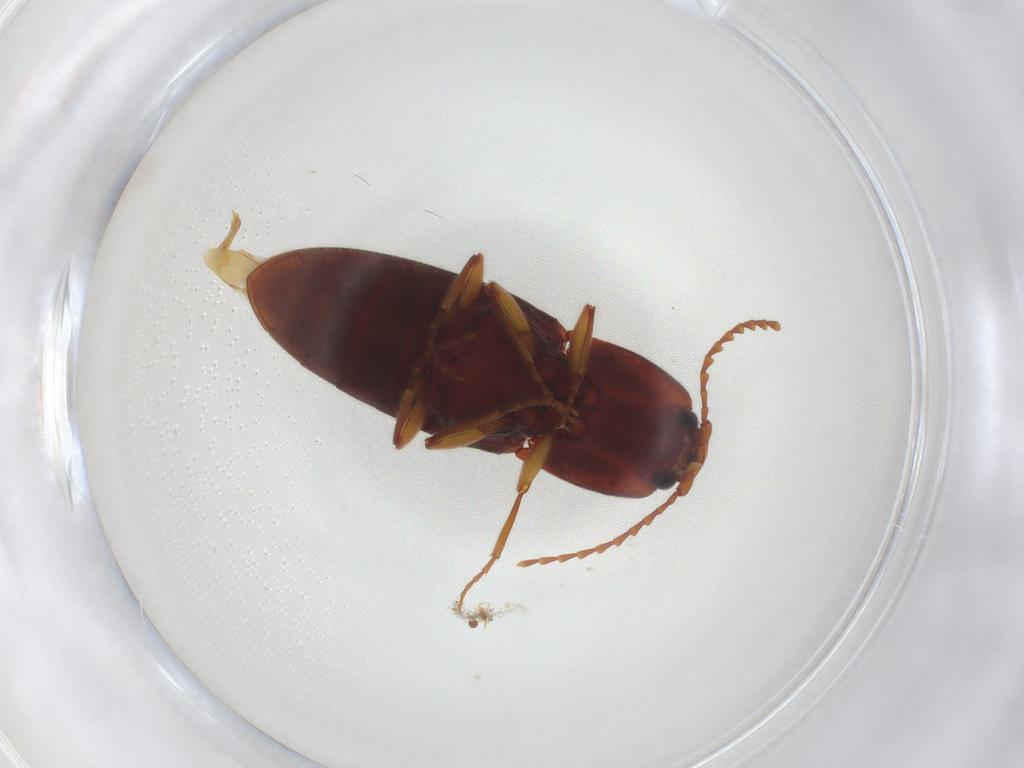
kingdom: Animalia
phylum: Arthropoda
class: Insecta
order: Coleoptera
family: Elateridae
